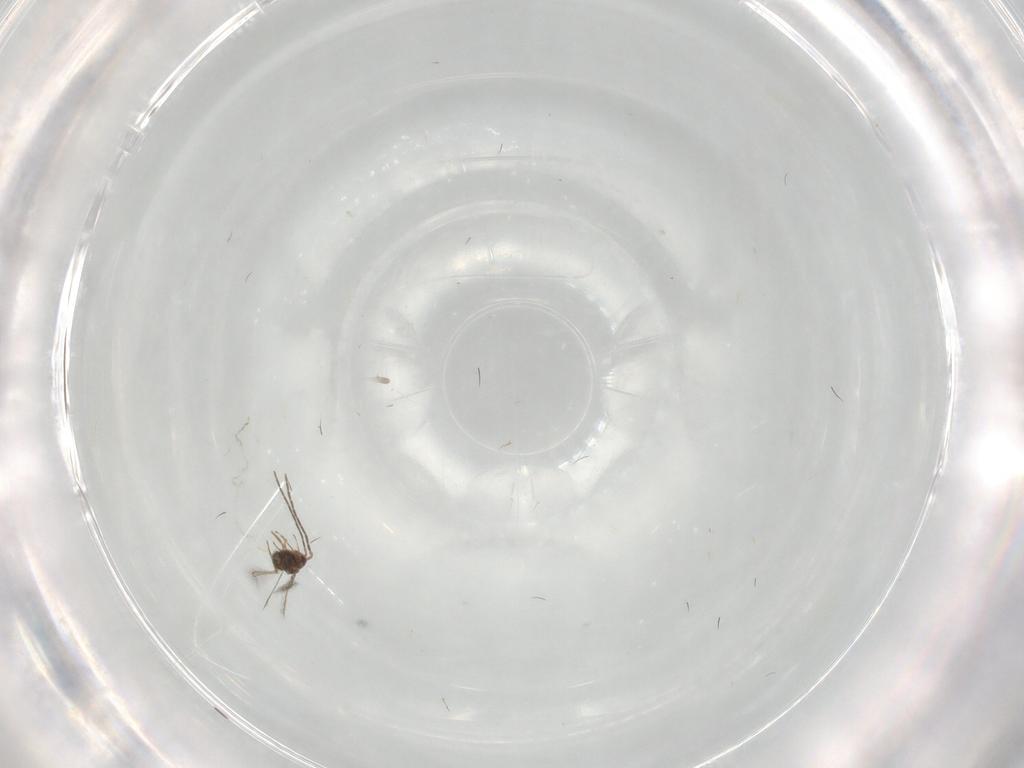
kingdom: Animalia
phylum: Arthropoda
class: Insecta
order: Hymenoptera
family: Mymaridae
